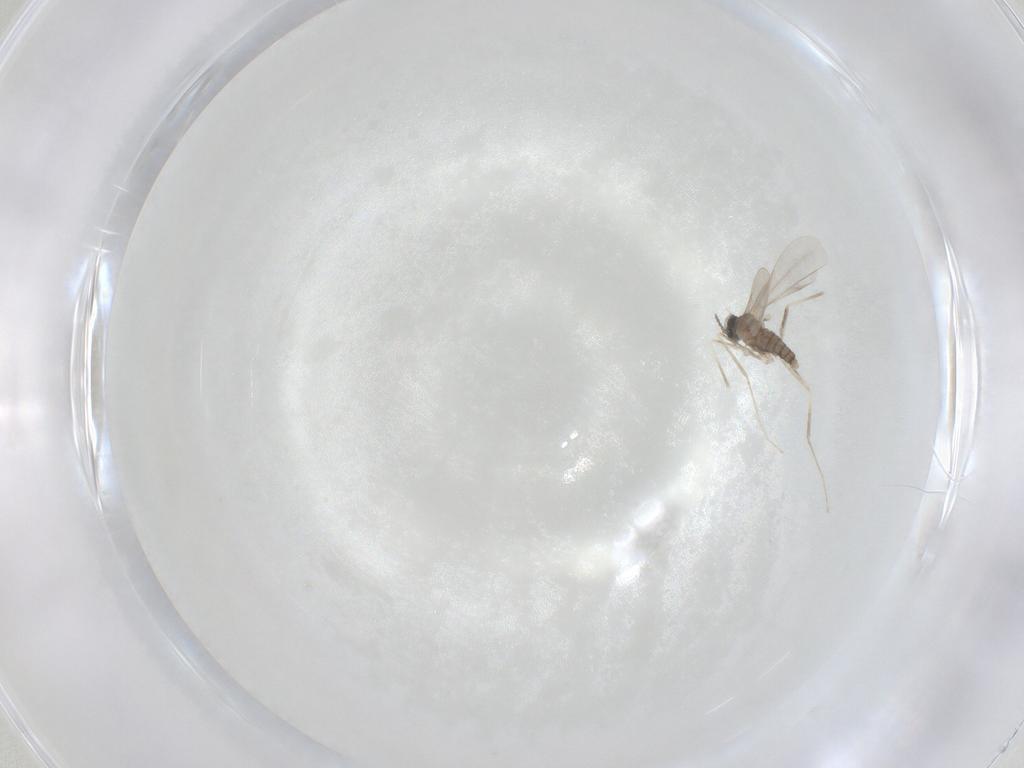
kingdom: Animalia
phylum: Arthropoda
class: Insecta
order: Diptera
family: Cecidomyiidae
